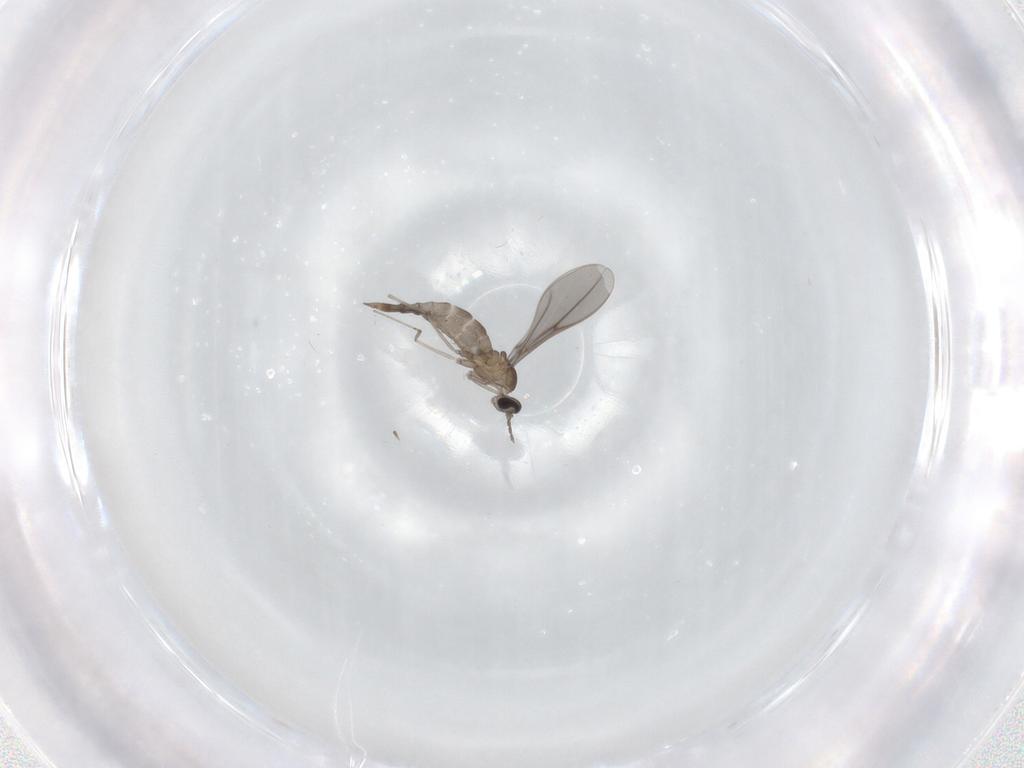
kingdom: Animalia
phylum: Arthropoda
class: Insecta
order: Diptera
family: Cecidomyiidae
